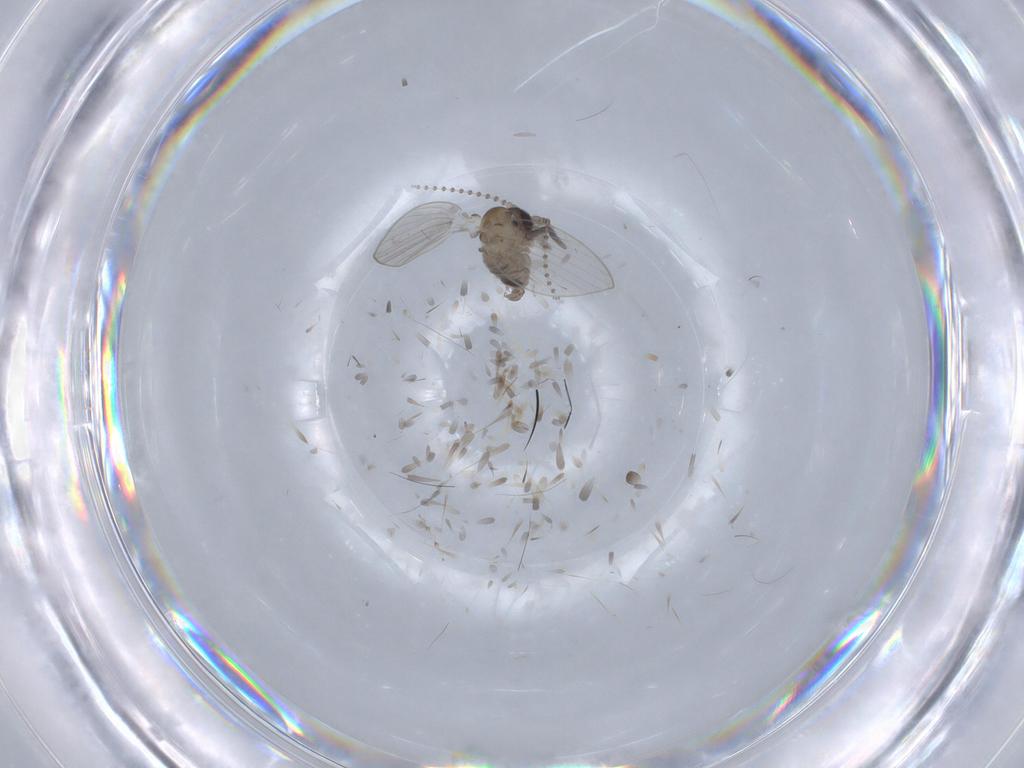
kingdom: Animalia
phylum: Arthropoda
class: Insecta
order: Diptera
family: Psychodidae
